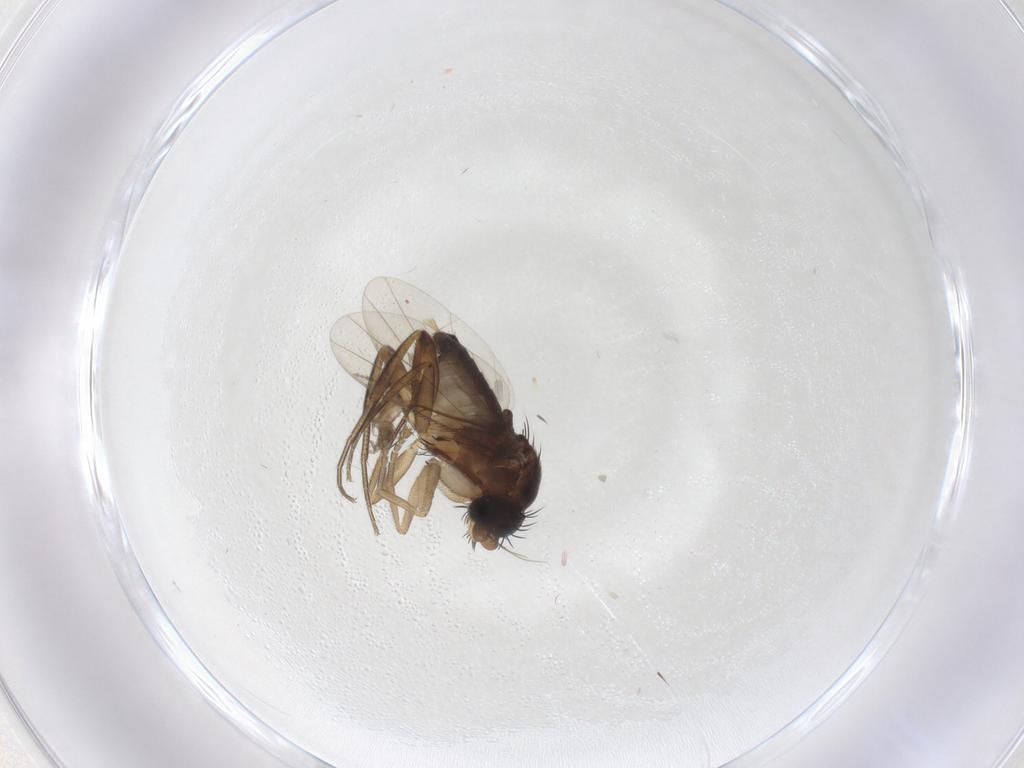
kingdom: Animalia
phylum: Arthropoda
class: Insecta
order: Diptera
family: Phoridae
